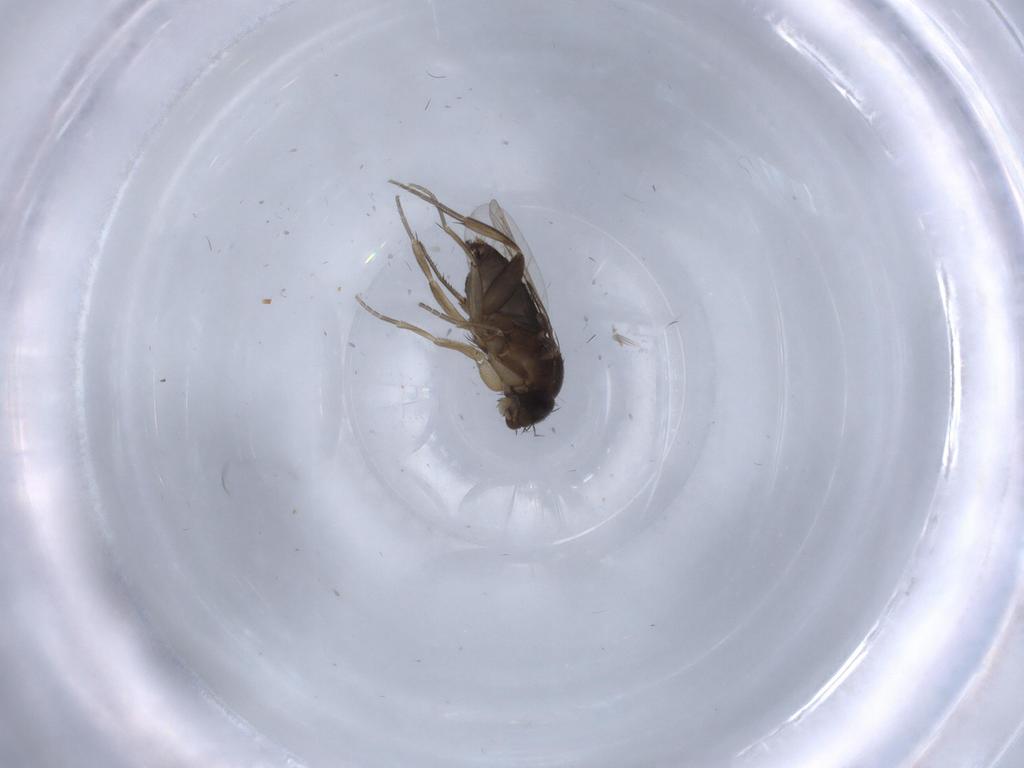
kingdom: Animalia
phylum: Arthropoda
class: Insecta
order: Diptera
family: Phoridae
